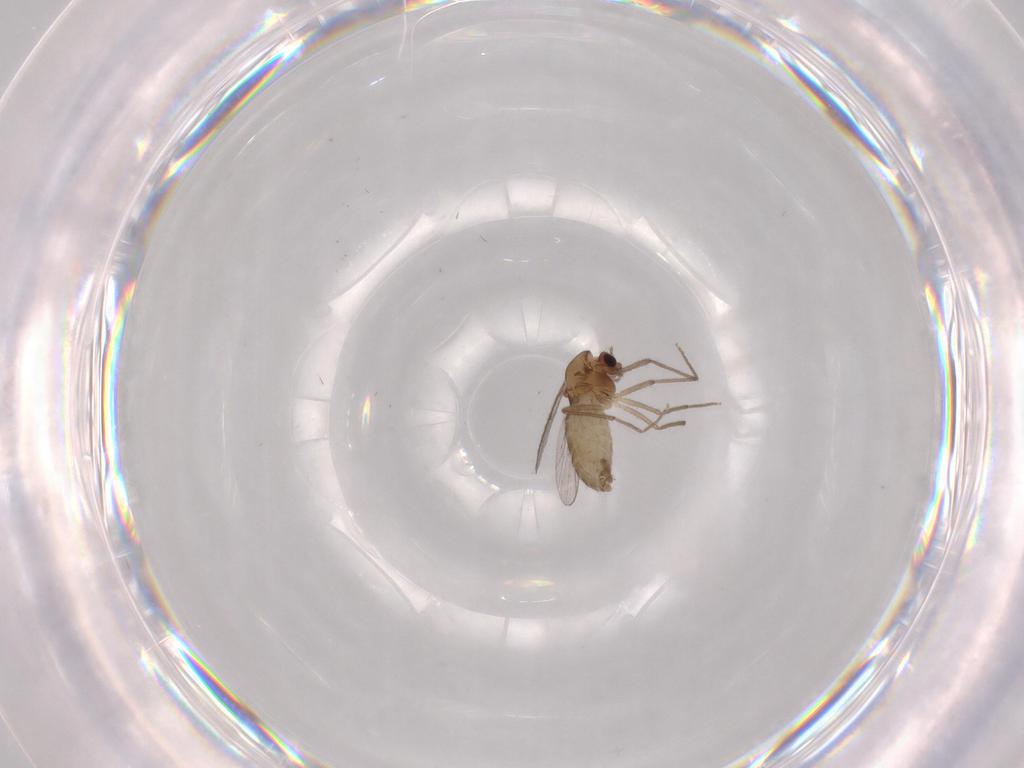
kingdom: Animalia
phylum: Arthropoda
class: Insecta
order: Diptera
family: Chironomidae
